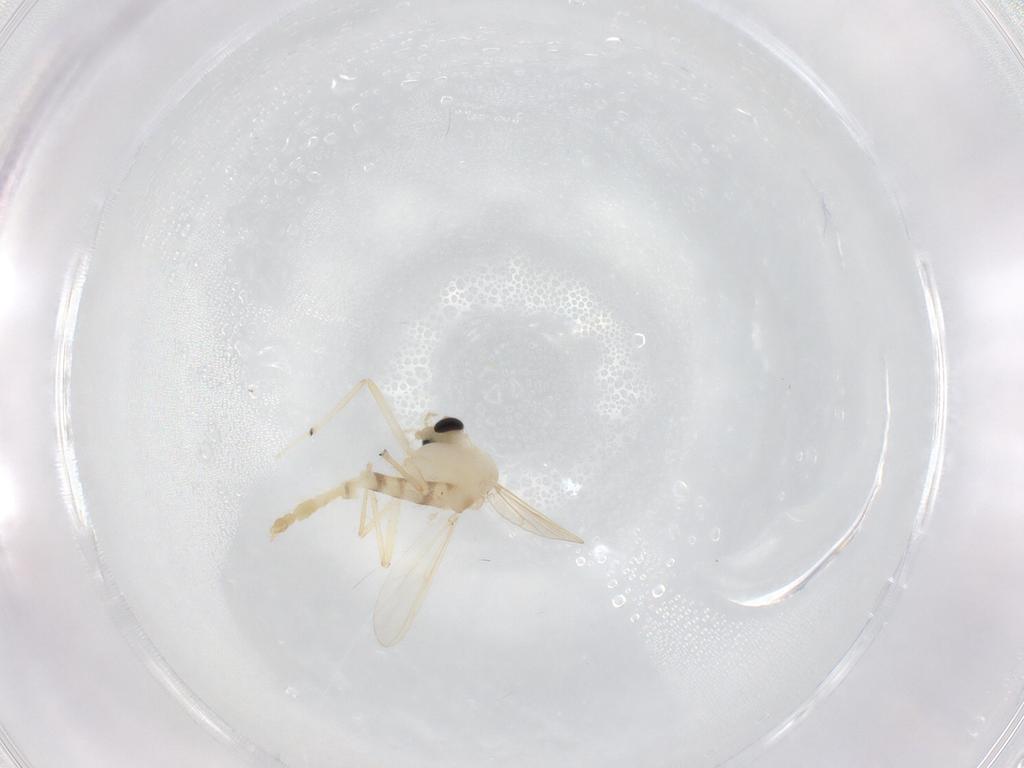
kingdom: Animalia
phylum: Arthropoda
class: Insecta
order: Diptera
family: Chironomidae
